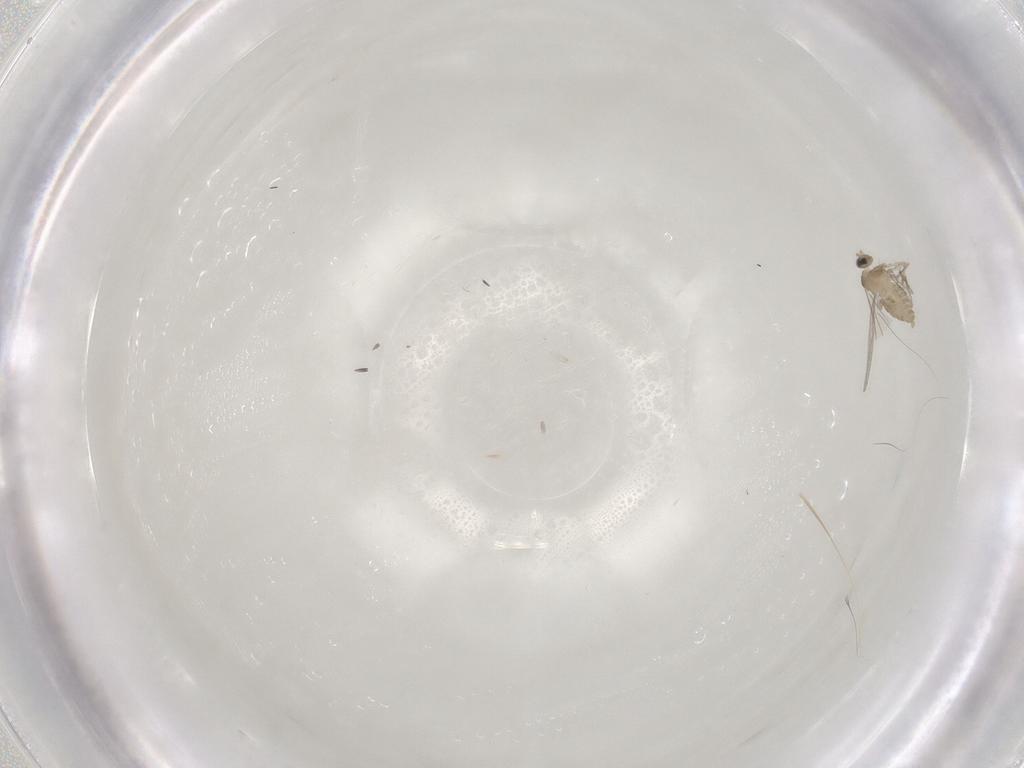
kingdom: Animalia
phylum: Arthropoda
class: Insecta
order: Diptera
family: Cecidomyiidae
